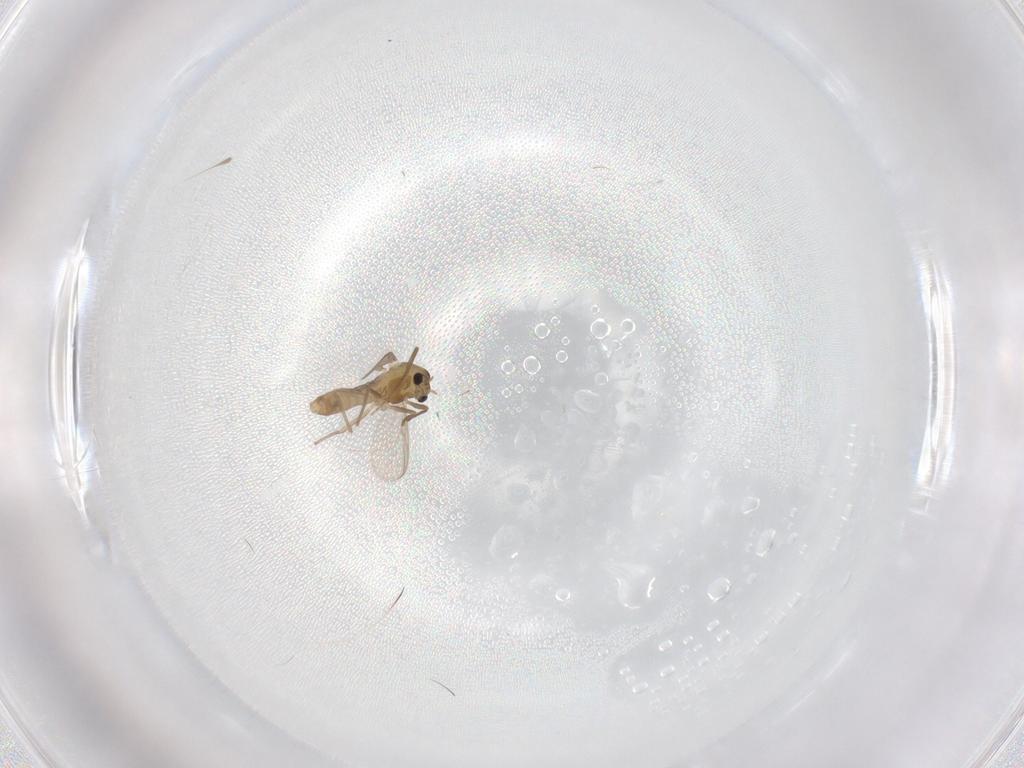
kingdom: Animalia
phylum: Arthropoda
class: Insecta
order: Diptera
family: Chironomidae
